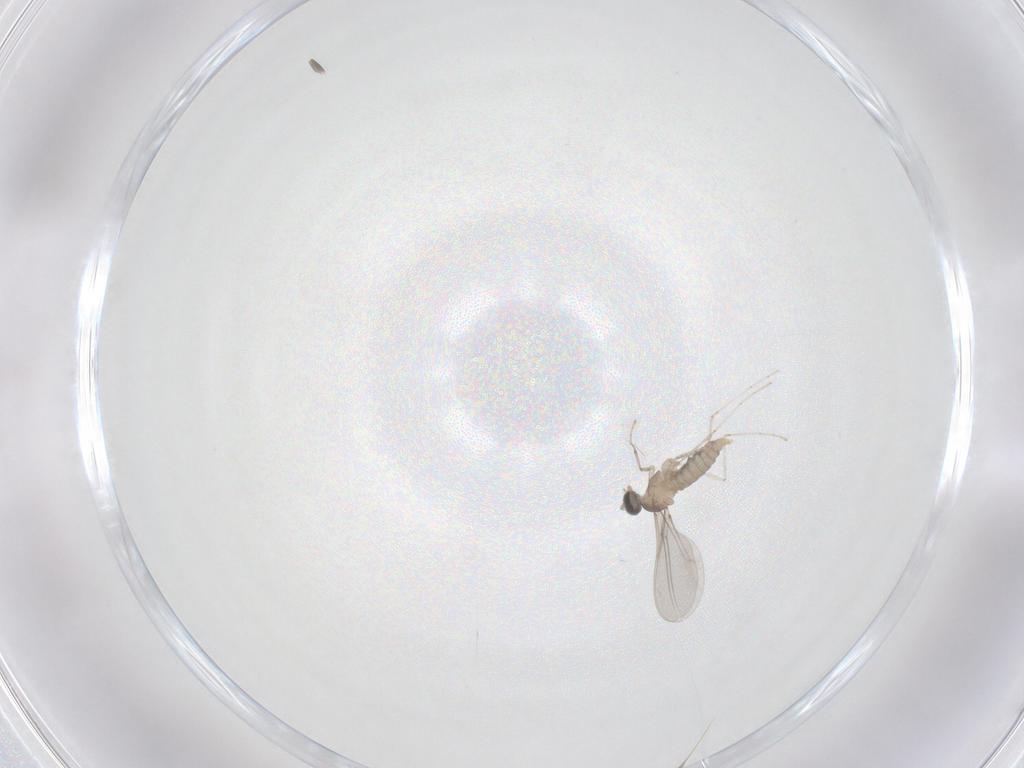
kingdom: Animalia
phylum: Arthropoda
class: Insecta
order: Diptera
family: Cecidomyiidae
